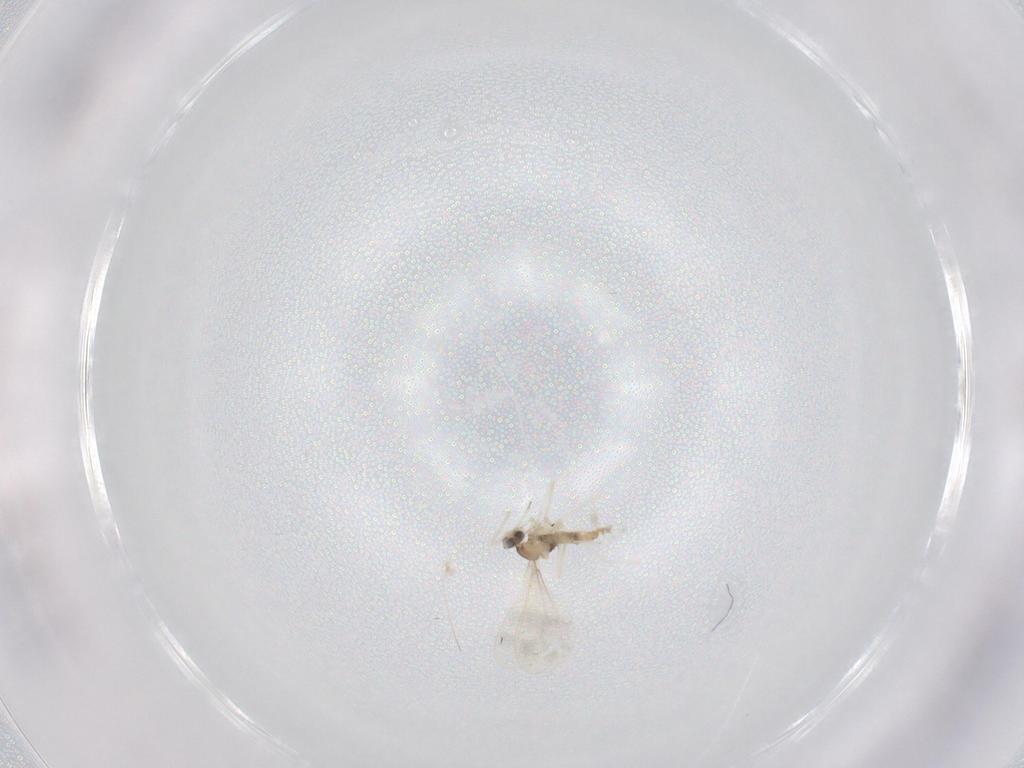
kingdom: Animalia
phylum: Arthropoda
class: Insecta
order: Diptera
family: Cecidomyiidae
